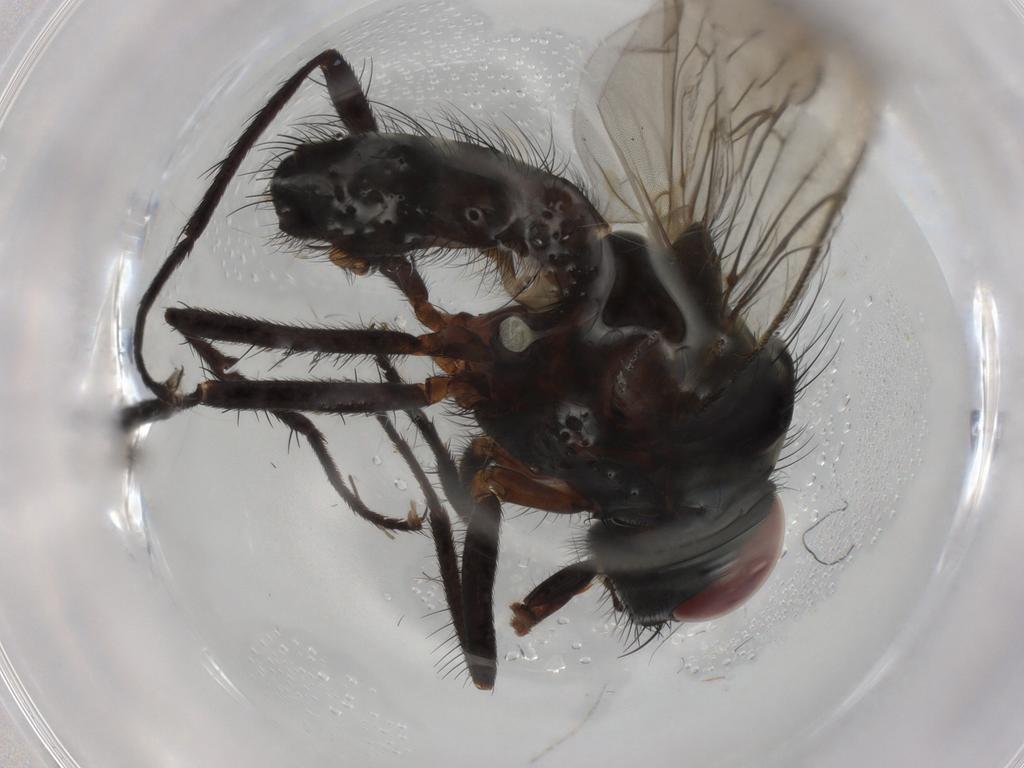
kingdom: Animalia
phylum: Arthropoda
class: Insecta
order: Diptera
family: Anthomyiidae
